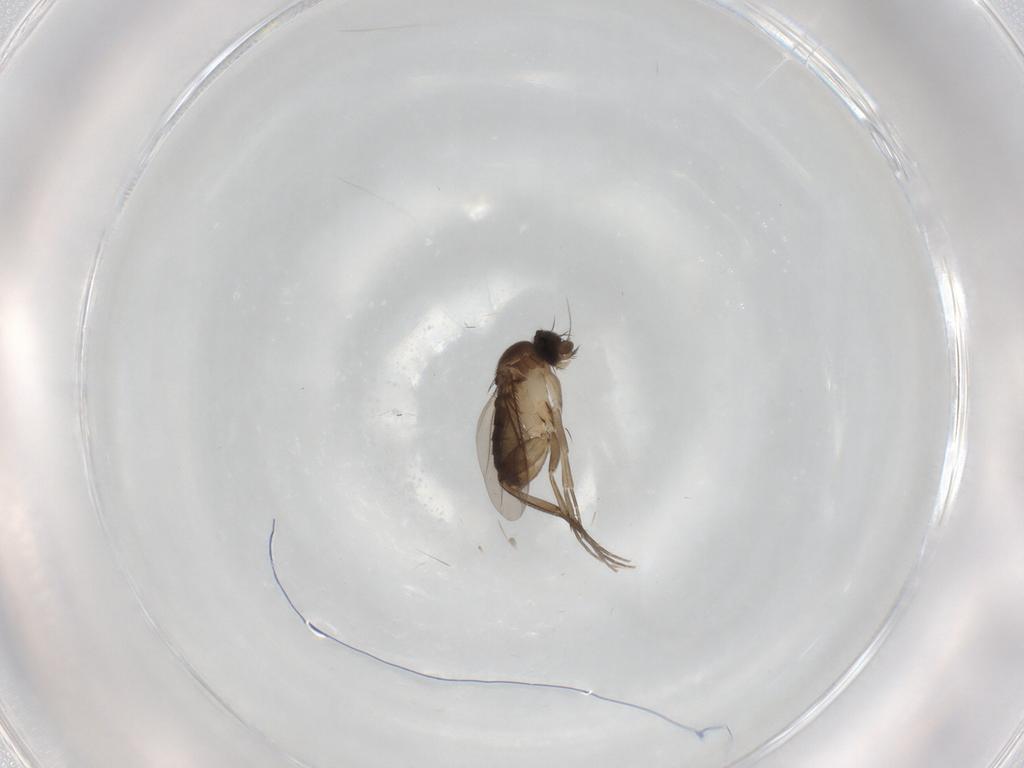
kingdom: Animalia
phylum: Arthropoda
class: Insecta
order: Diptera
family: Phoridae
